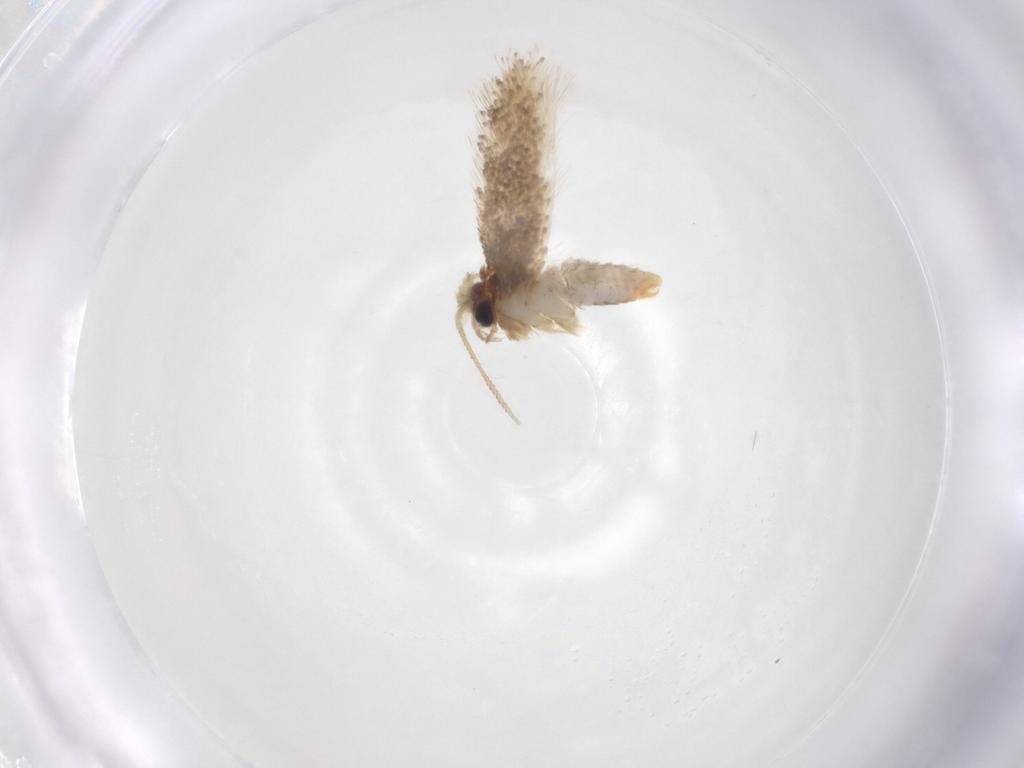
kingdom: Animalia
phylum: Arthropoda
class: Insecta
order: Lepidoptera
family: Nepticulidae
